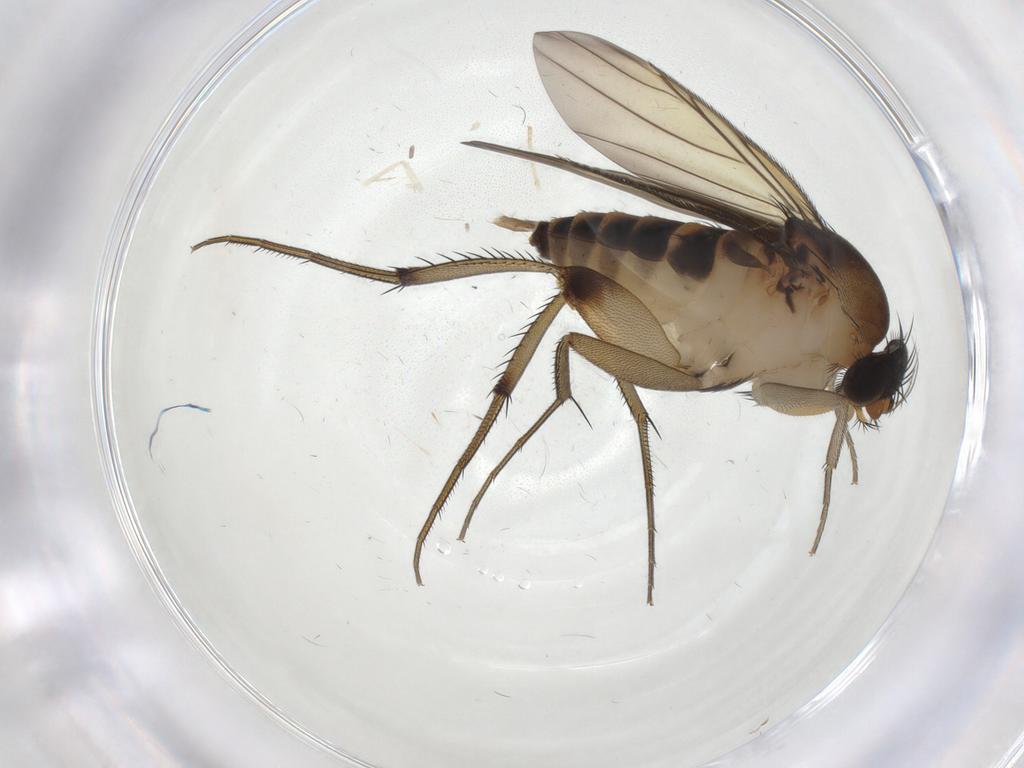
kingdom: Animalia
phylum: Arthropoda
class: Insecta
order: Diptera
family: Phoridae
